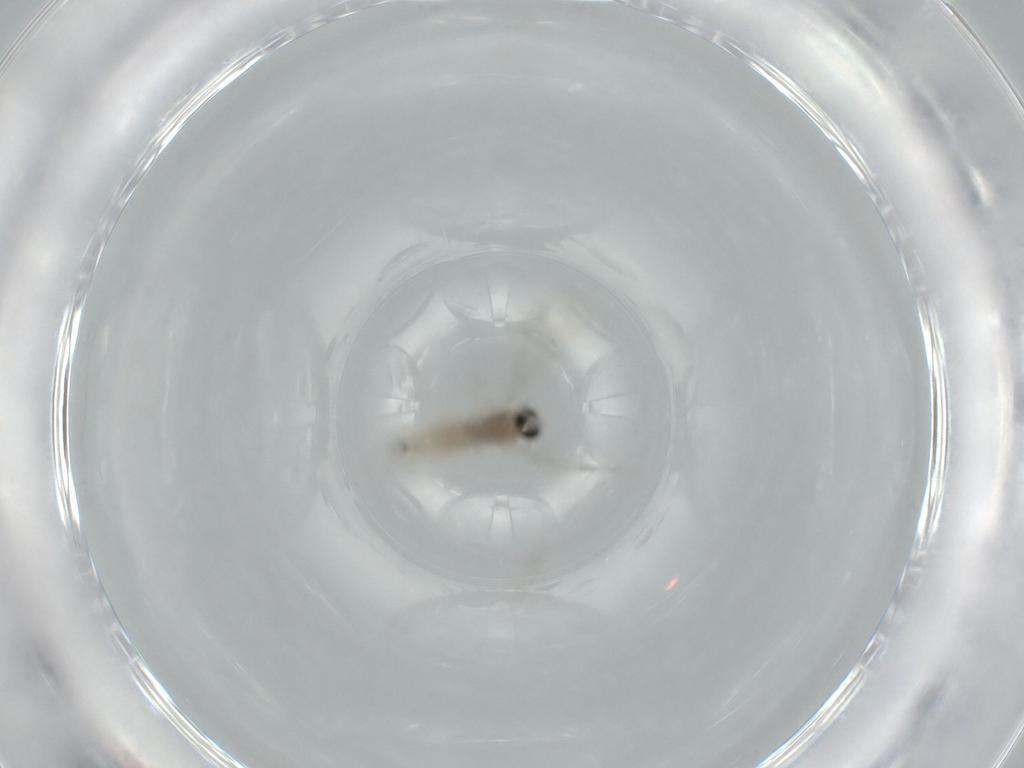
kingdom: Animalia
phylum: Arthropoda
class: Insecta
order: Diptera
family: Cecidomyiidae
